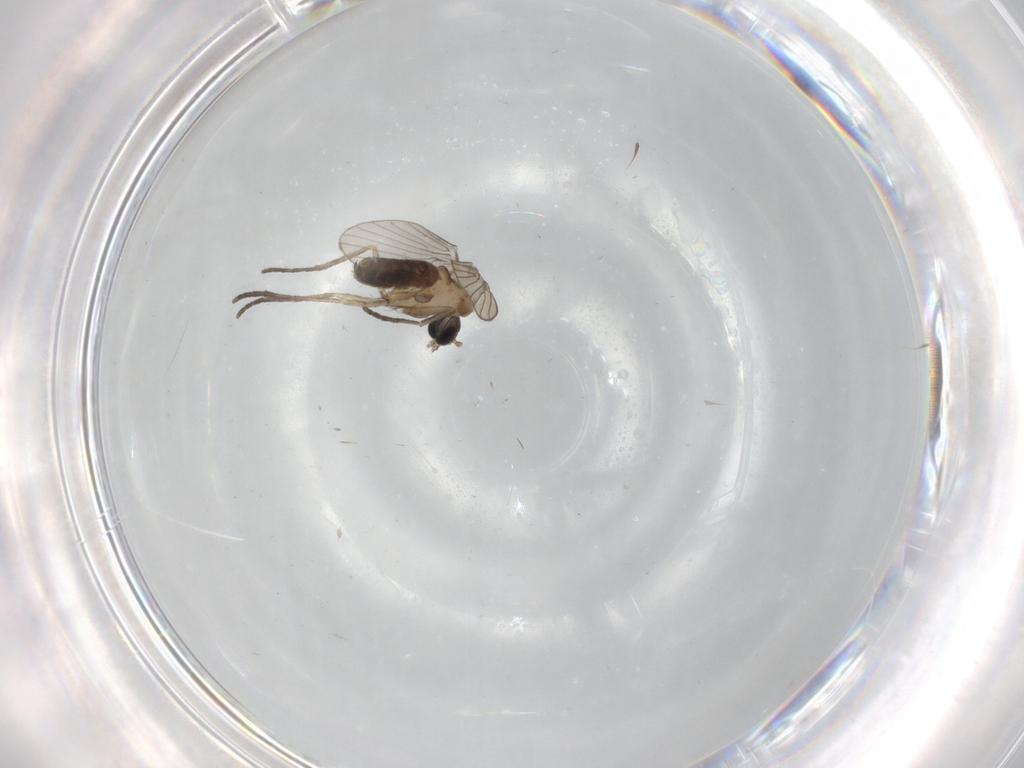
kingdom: Animalia
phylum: Arthropoda
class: Insecta
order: Diptera
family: Psychodidae
